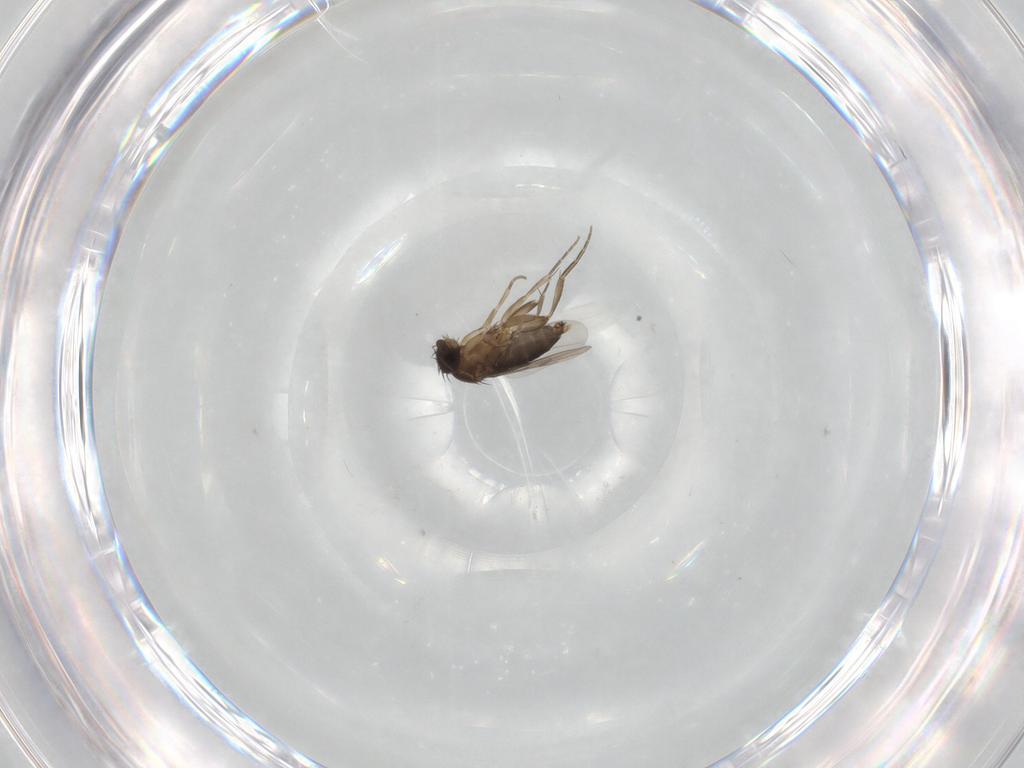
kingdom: Animalia
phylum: Arthropoda
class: Insecta
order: Diptera
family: Phoridae
